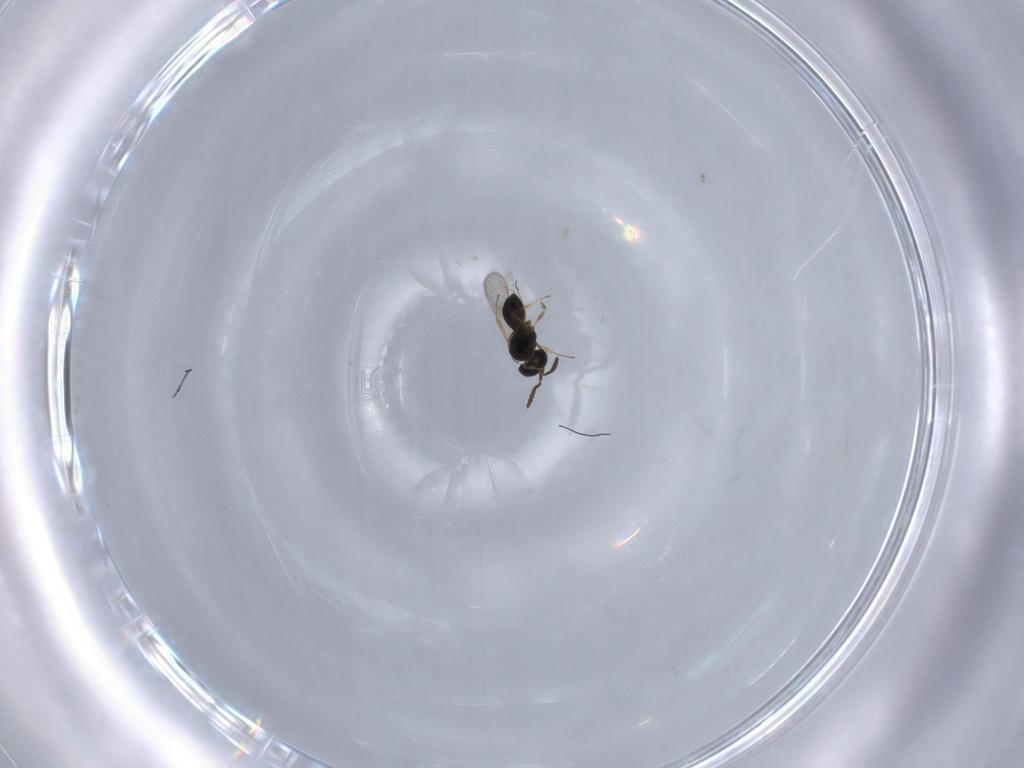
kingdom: Animalia
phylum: Arthropoda
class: Insecta
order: Hymenoptera
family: Scelionidae
